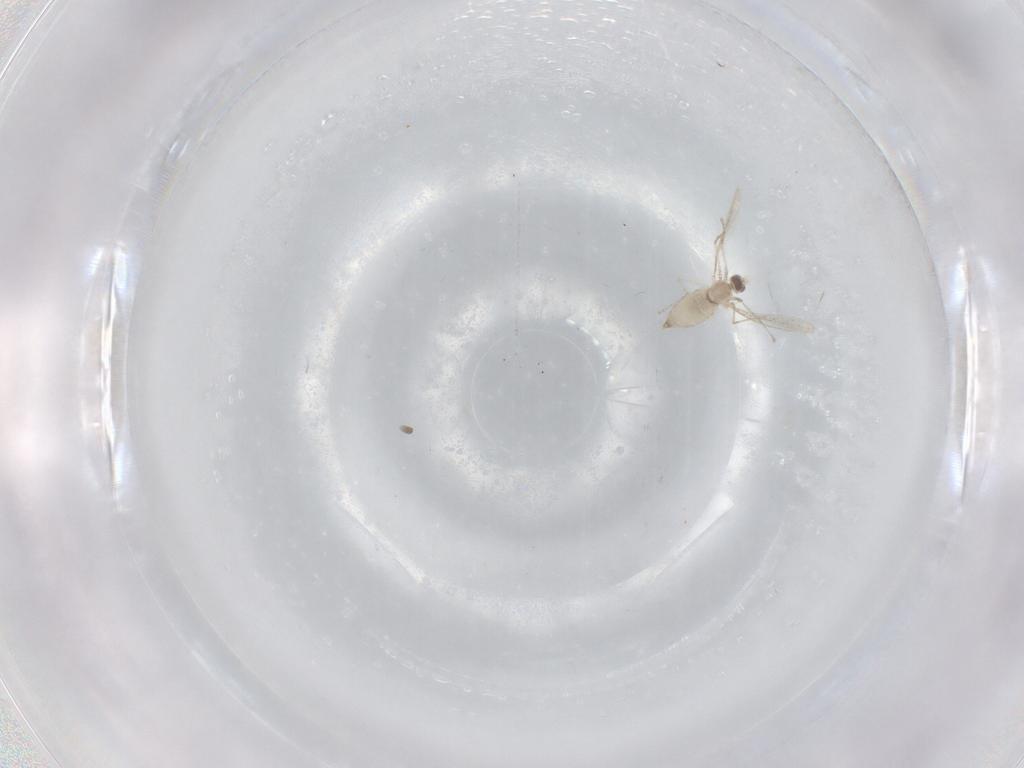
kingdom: Animalia
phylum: Arthropoda
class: Insecta
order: Diptera
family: Cecidomyiidae
